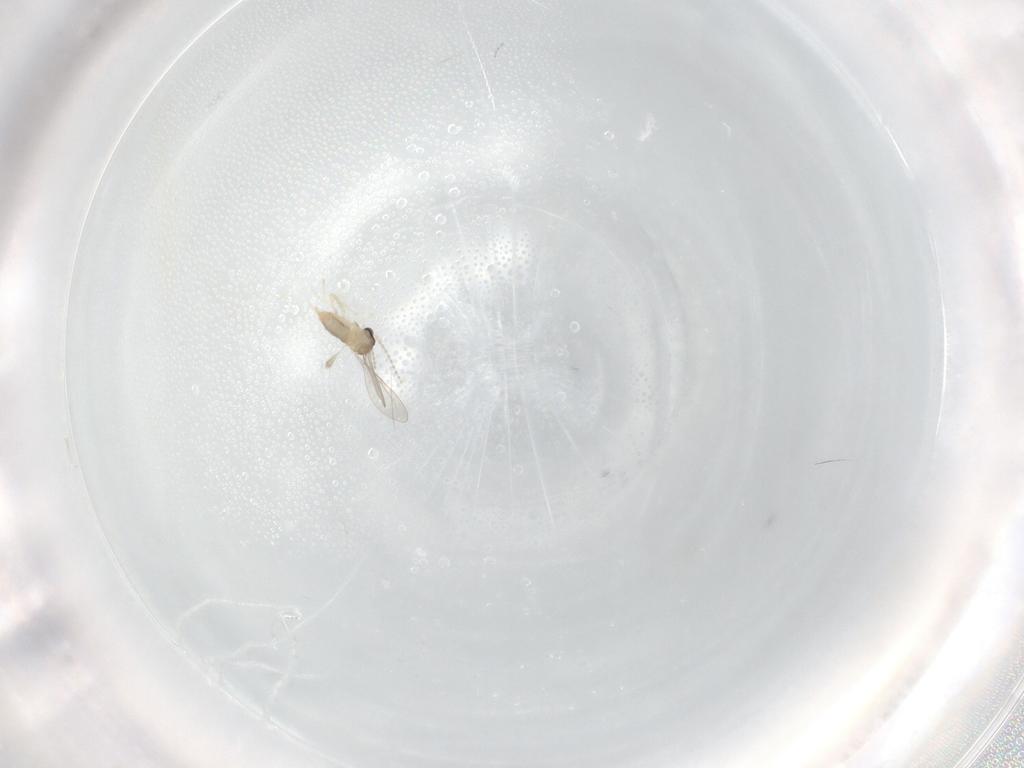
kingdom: Animalia
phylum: Arthropoda
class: Insecta
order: Diptera
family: Cecidomyiidae
